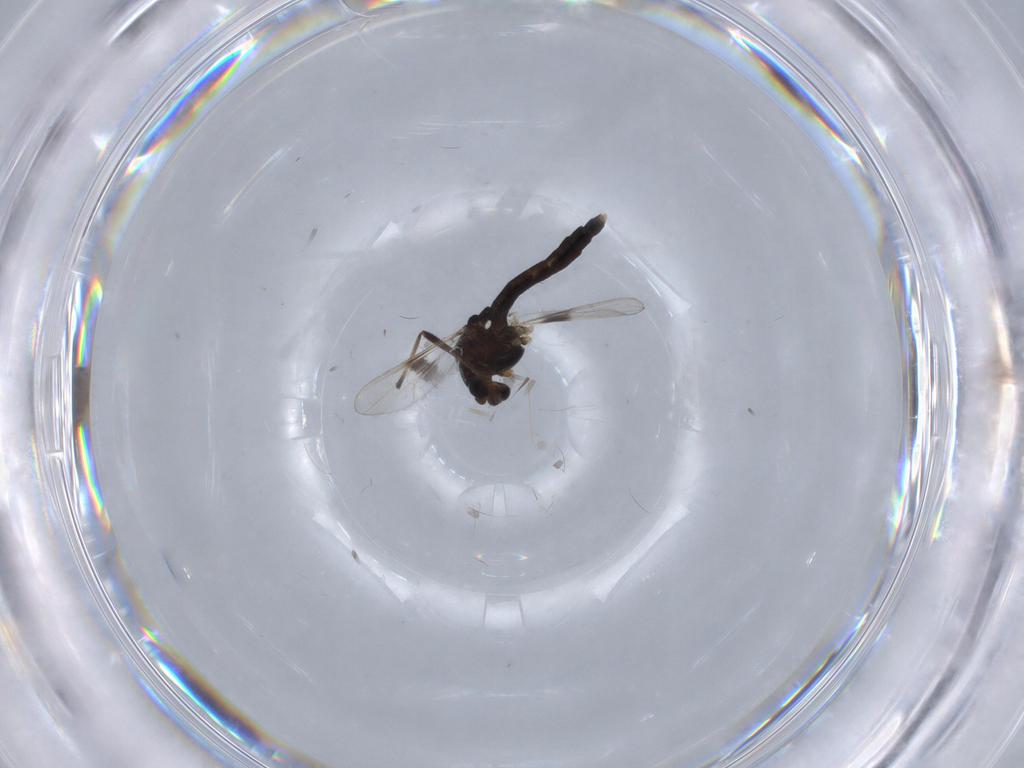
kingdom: Animalia
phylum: Arthropoda
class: Insecta
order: Diptera
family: Chironomidae
